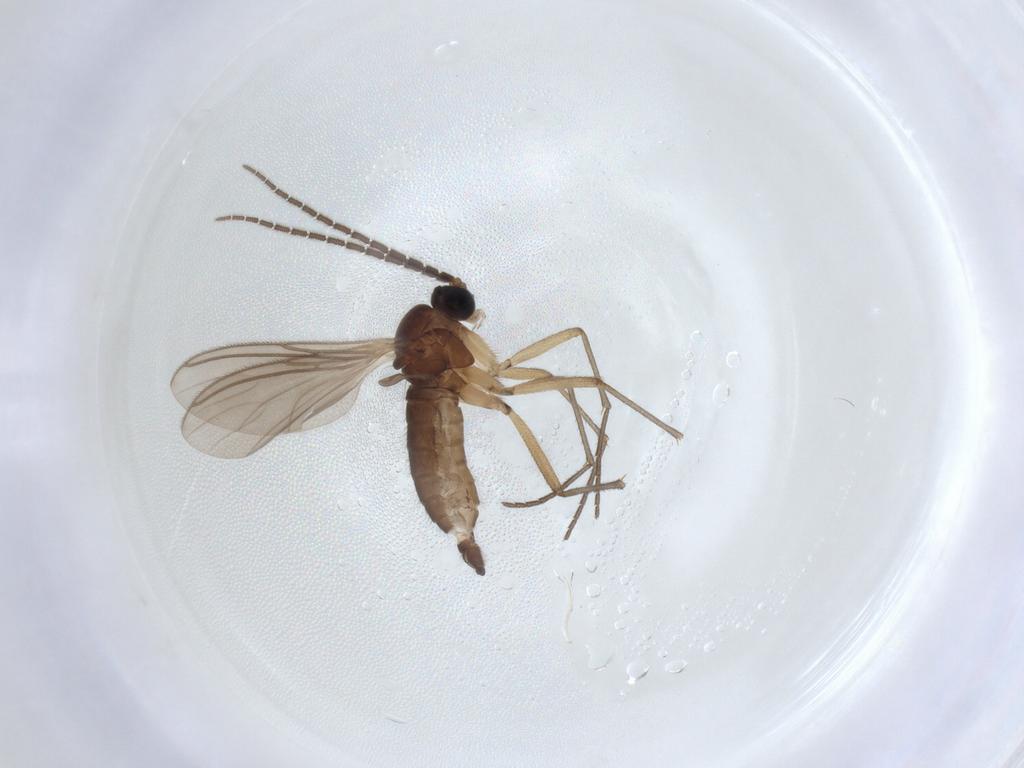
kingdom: Animalia
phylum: Arthropoda
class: Insecta
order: Diptera
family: Sciaridae
